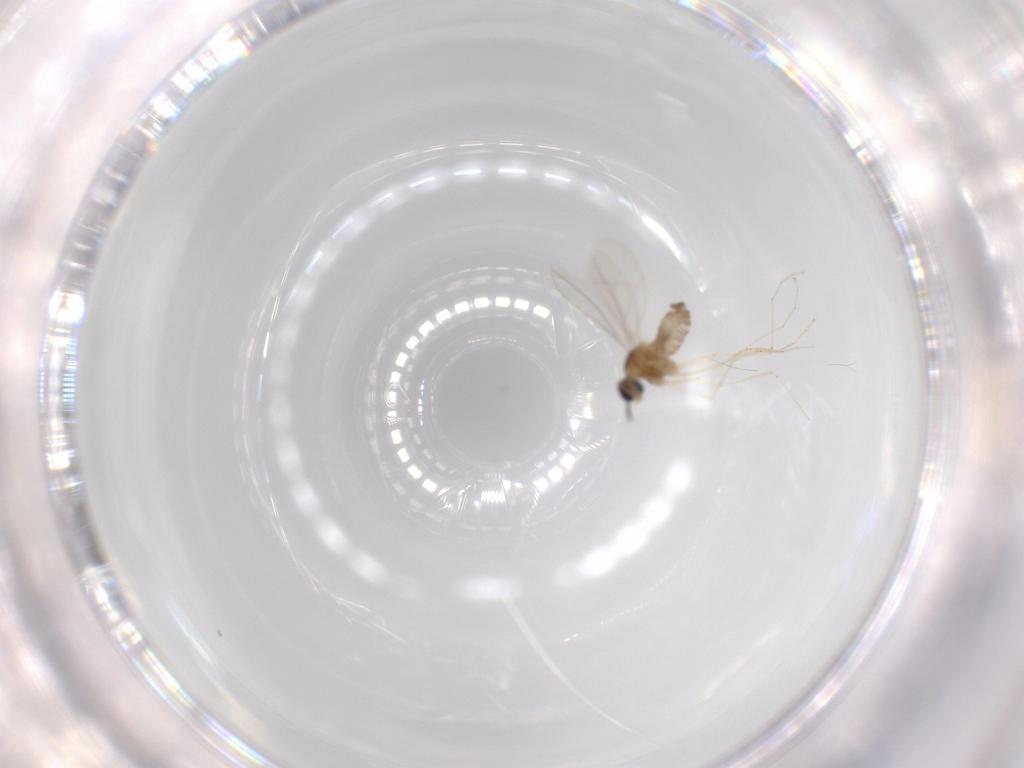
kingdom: Animalia
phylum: Arthropoda
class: Insecta
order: Diptera
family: Cecidomyiidae
